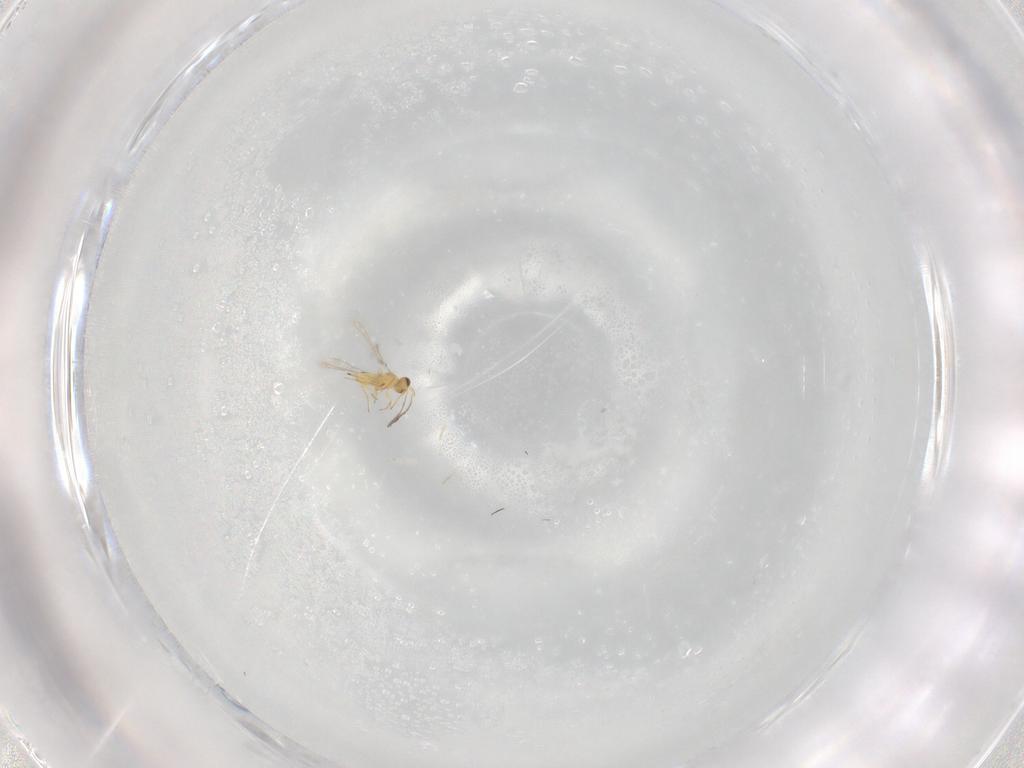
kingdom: Animalia
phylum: Arthropoda
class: Insecta
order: Hymenoptera
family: Mymaridae
